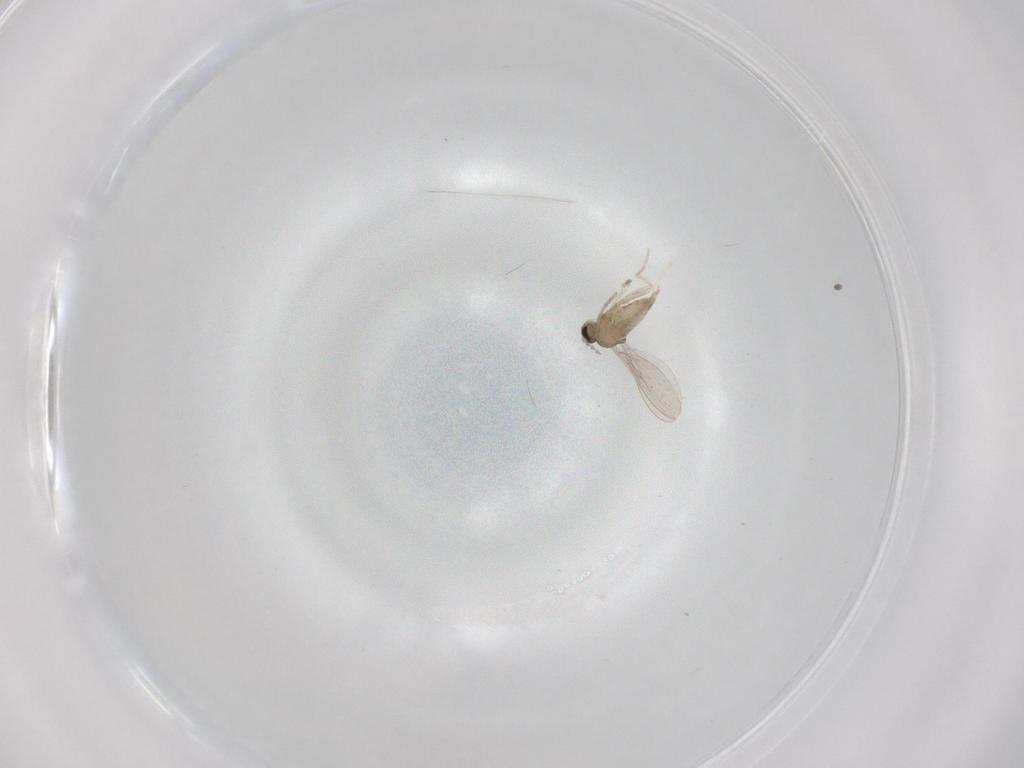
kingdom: Animalia
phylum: Arthropoda
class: Insecta
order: Diptera
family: Cecidomyiidae
